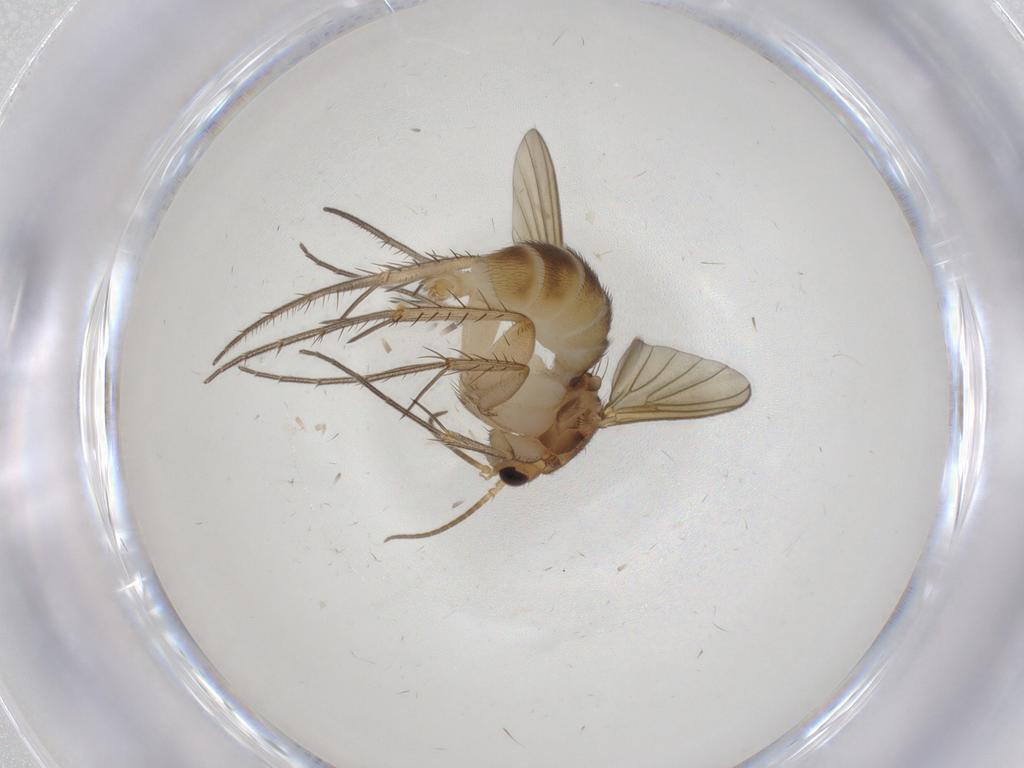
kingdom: Animalia
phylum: Arthropoda
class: Insecta
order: Diptera
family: Mycetophilidae
